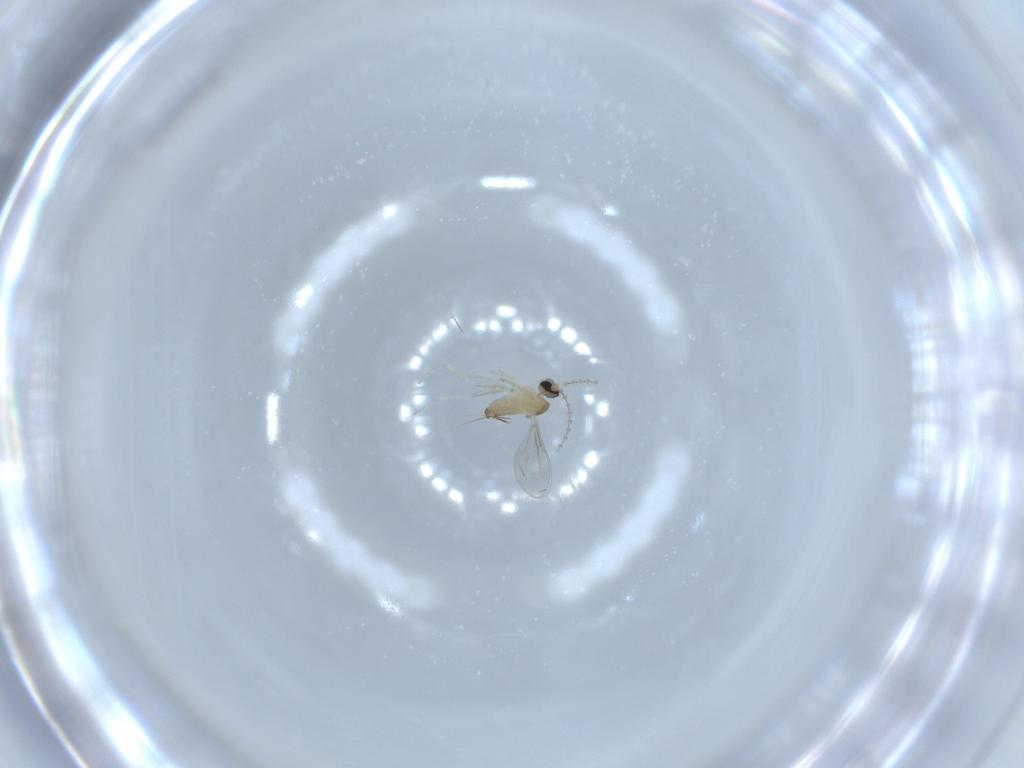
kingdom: Animalia
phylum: Arthropoda
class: Insecta
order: Diptera
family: Cecidomyiidae
